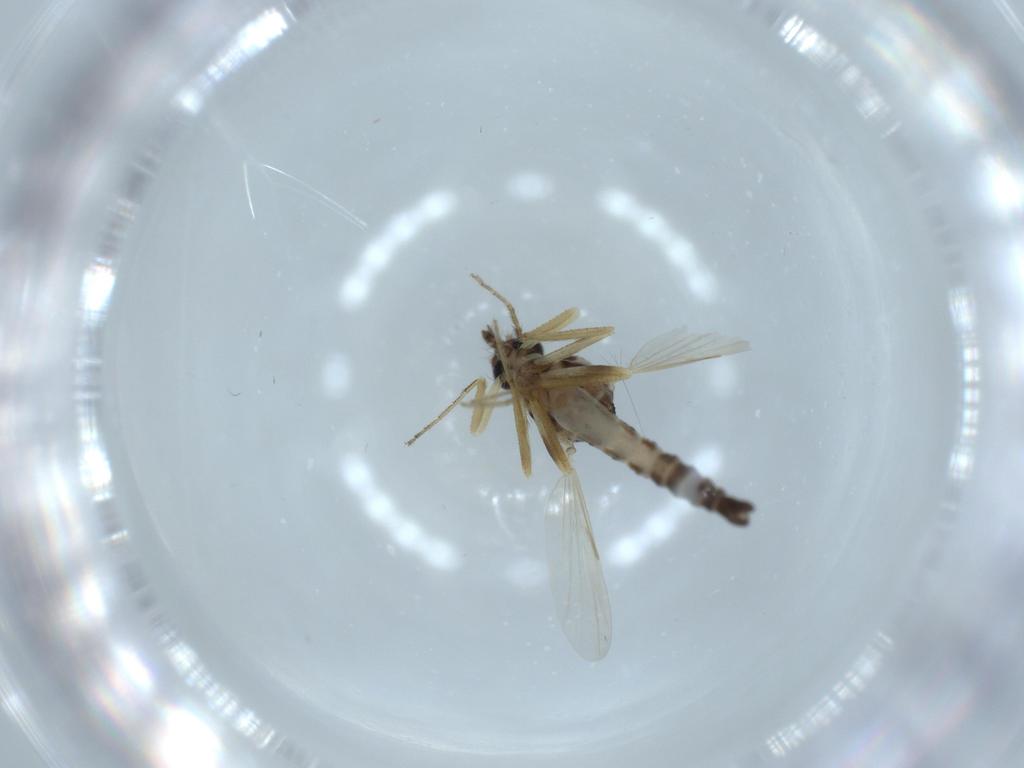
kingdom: Animalia
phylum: Arthropoda
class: Insecta
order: Diptera
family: Ceratopogonidae
